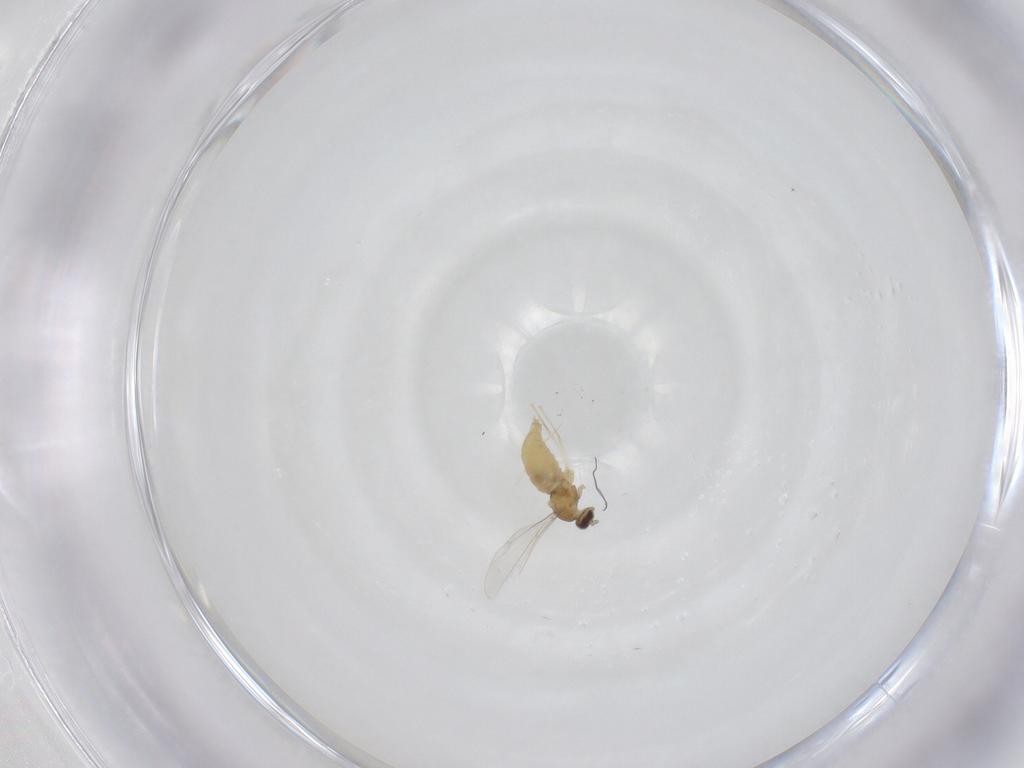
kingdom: Animalia
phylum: Arthropoda
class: Insecta
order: Diptera
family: Cecidomyiidae
